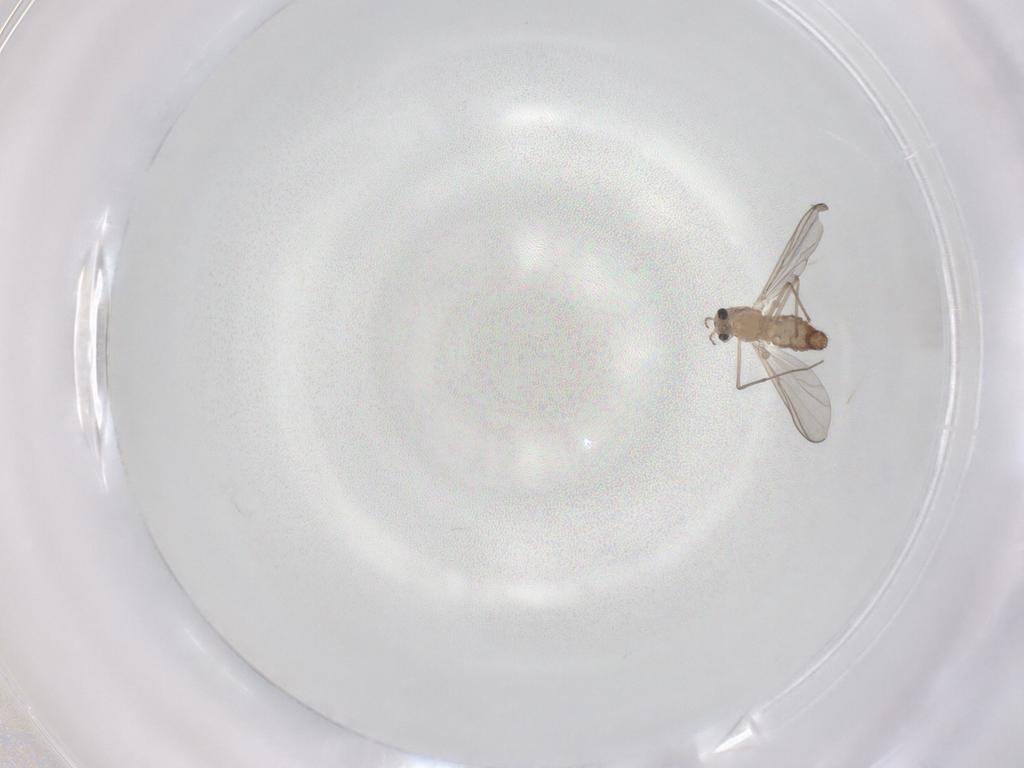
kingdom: Animalia
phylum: Arthropoda
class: Insecta
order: Diptera
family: Chironomidae
